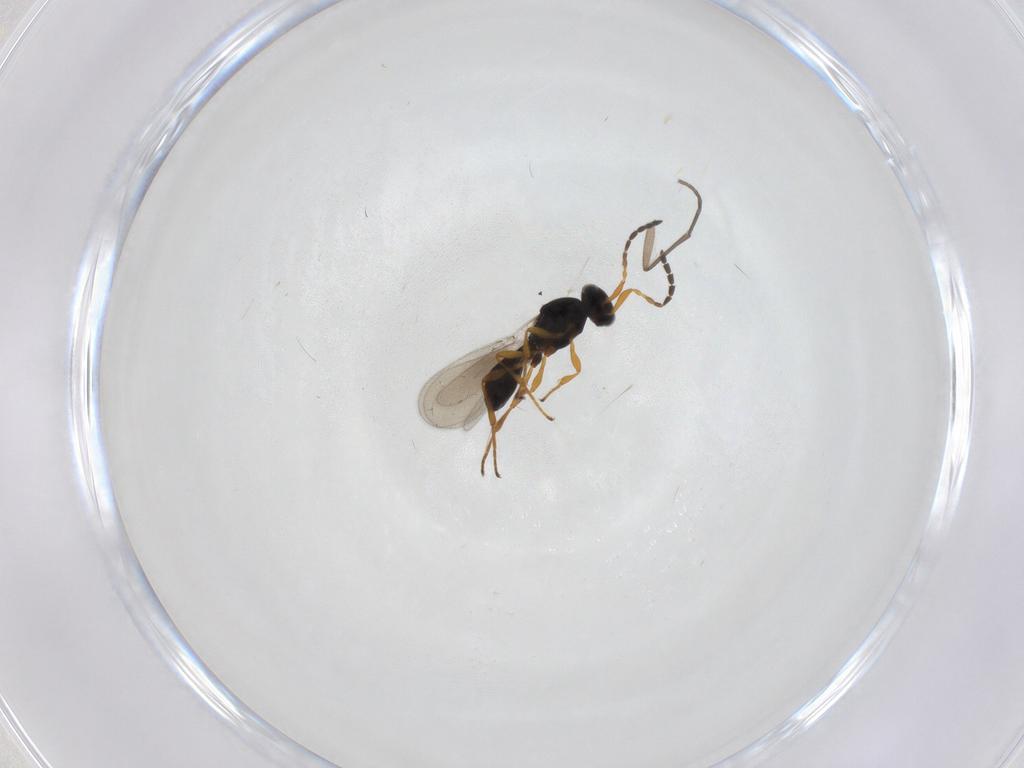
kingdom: Animalia
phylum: Arthropoda
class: Insecta
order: Hymenoptera
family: Platygastridae
